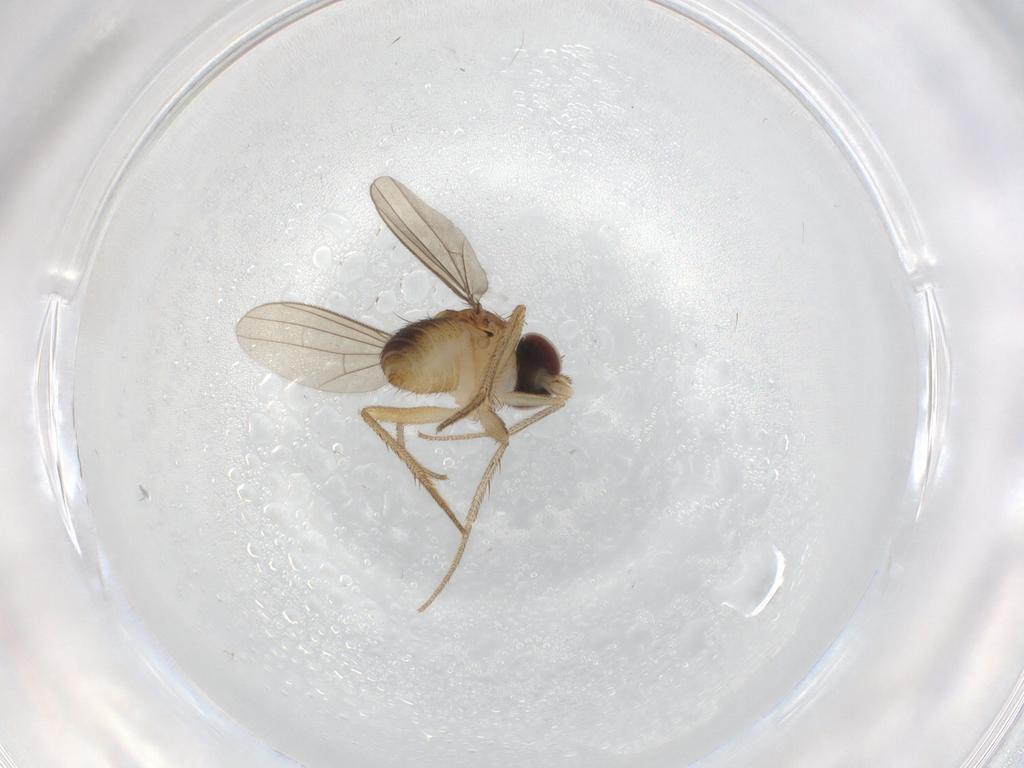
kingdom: Animalia
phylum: Arthropoda
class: Insecta
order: Diptera
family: Dolichopodidae
